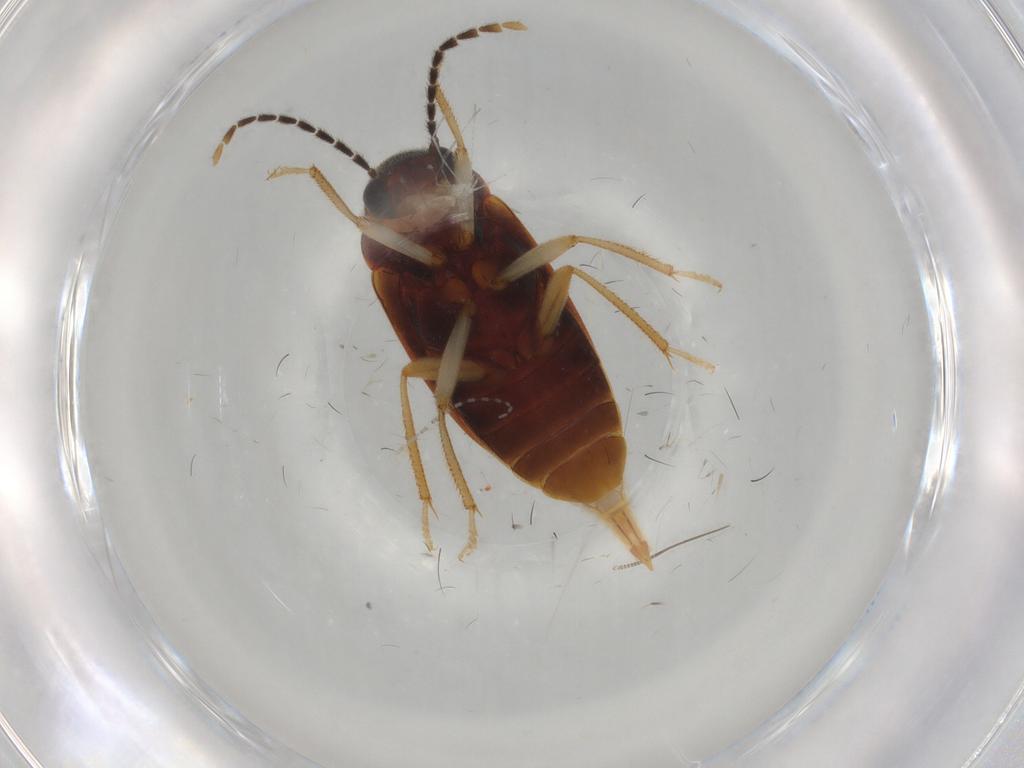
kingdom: Animalia
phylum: Arthropoda
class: Insecta
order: Coleoptera
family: Ptilodactylidae
